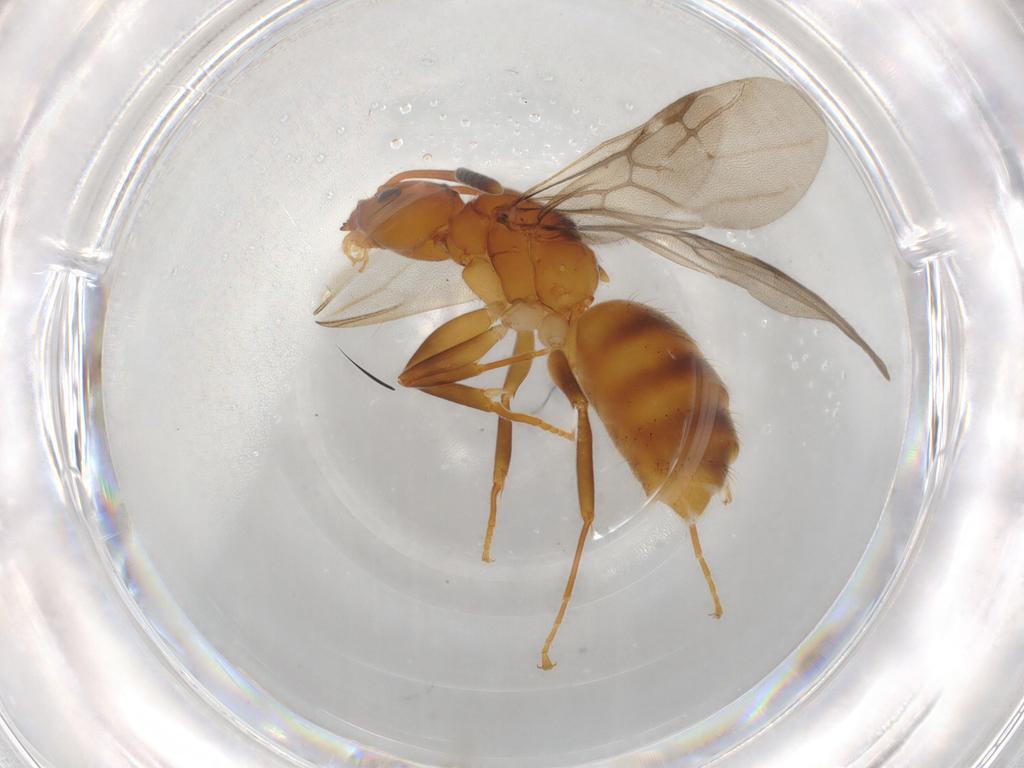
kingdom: Animalia
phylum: Arthropoda
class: Insecta
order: Hymenoptera
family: Formicidae
